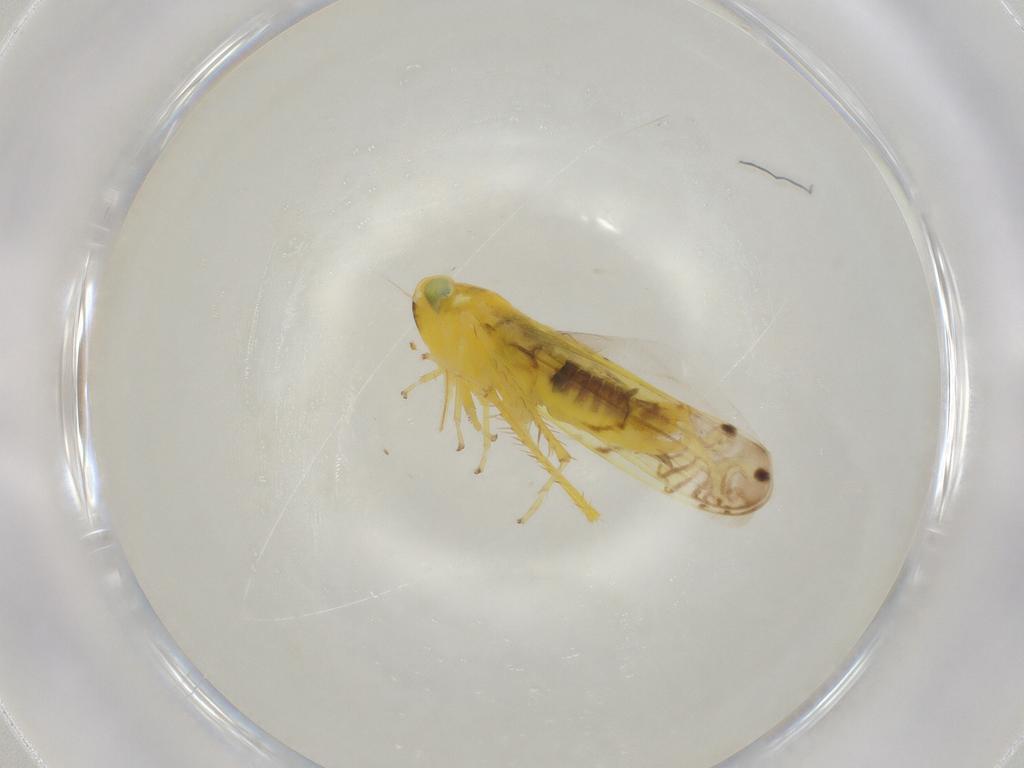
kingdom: Animalia
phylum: Arthropoda
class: Insecta
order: Hemiptera
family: Cicadellidae
